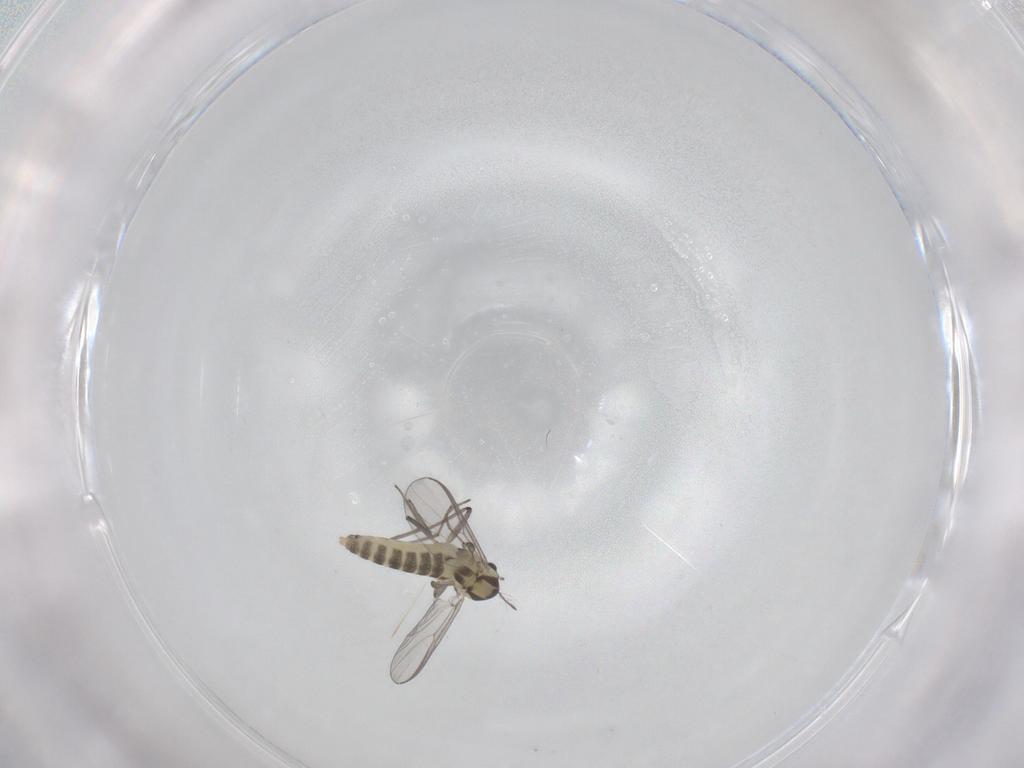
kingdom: Animalia
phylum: Arthropoda
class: Insecta
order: Diptera
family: Chironomidae
